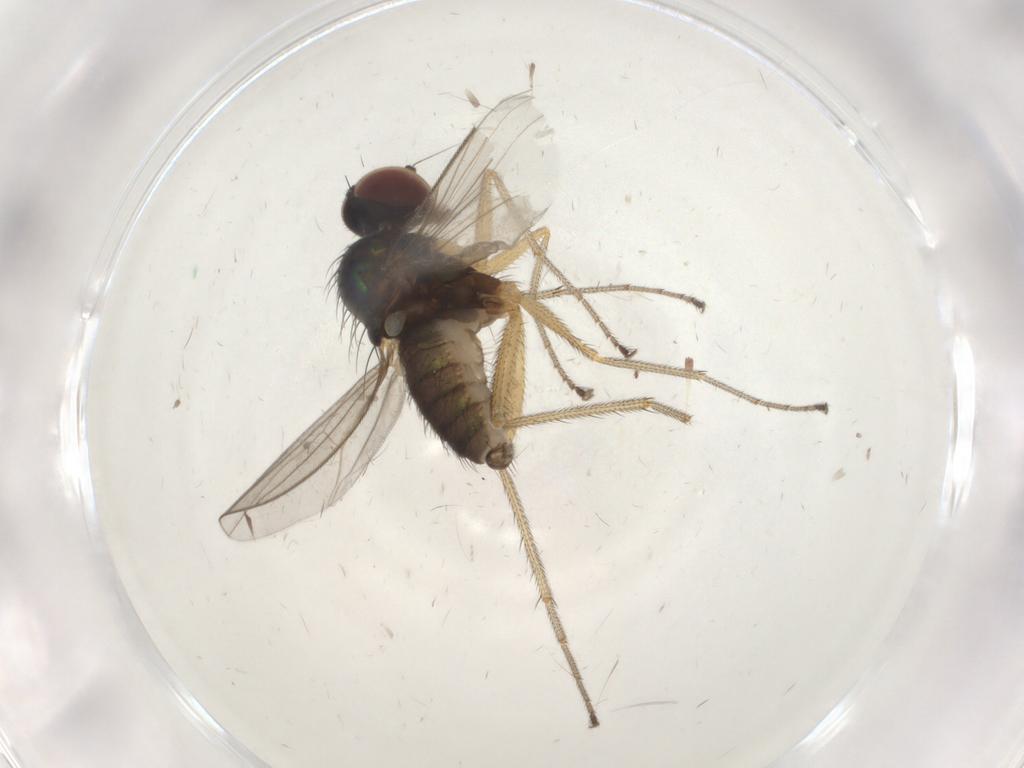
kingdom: Animalia
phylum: Arthropoda
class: Insecta
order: Diptera
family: Dolichopodidae
